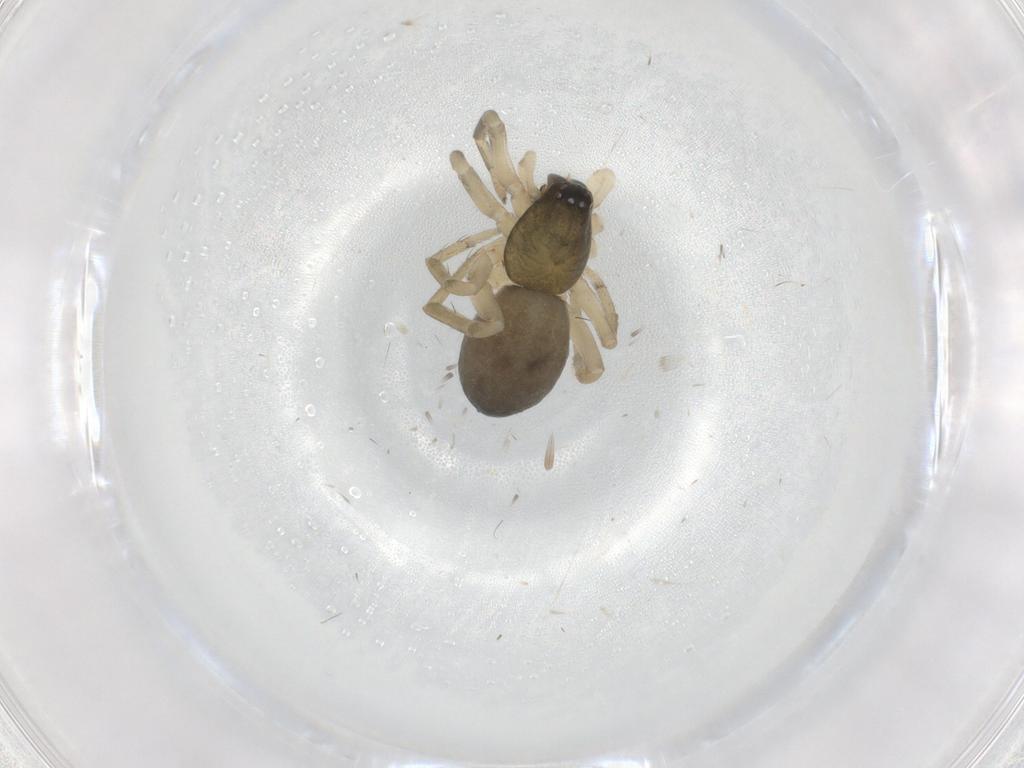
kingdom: Animalia
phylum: Arthropoda
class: Arachnida
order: Araneae
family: Clubionidae
